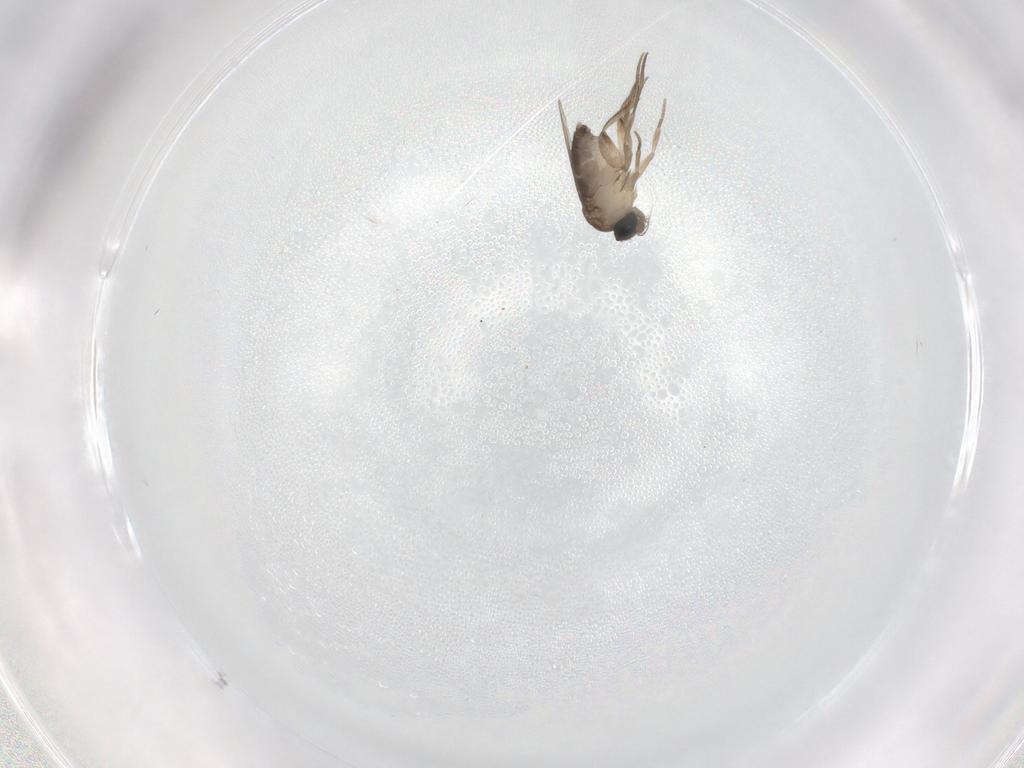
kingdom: Animalia
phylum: Arthropoda
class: Insecta
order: Diptera
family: Phoridae
